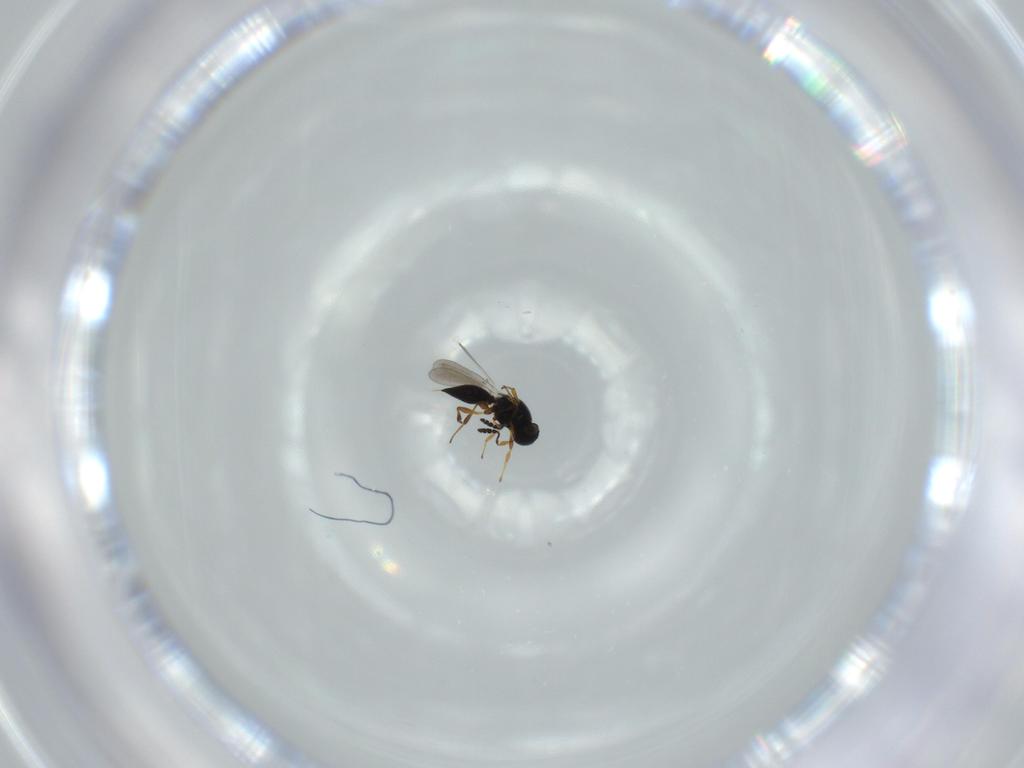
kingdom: Animalia
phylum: Arthropoda
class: Insecta
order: Hymenoptera
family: Platygastridae
